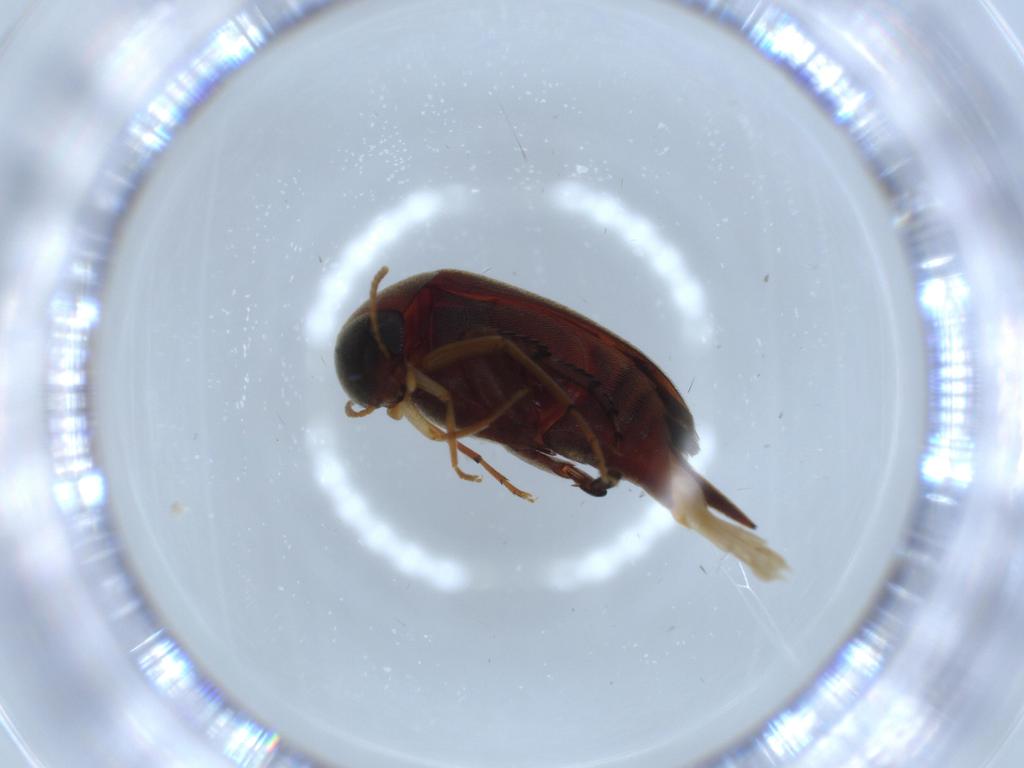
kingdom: Animalia
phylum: Arthropoda
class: Insecta
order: Coleoptera
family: Mordellidae
